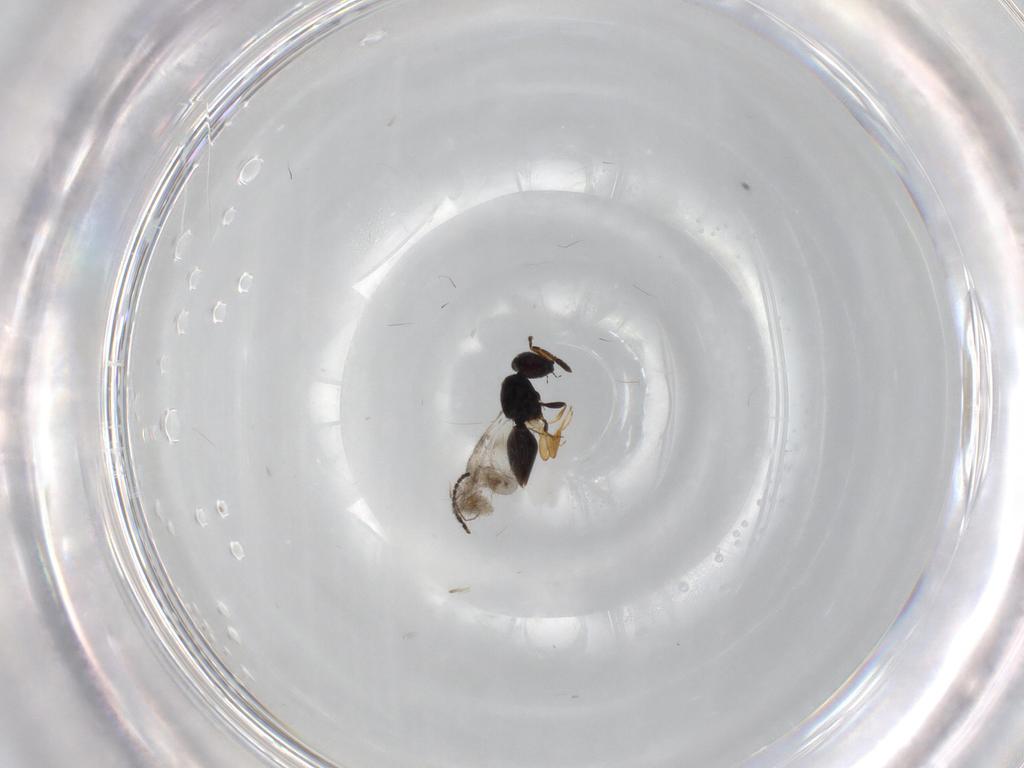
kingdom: Animalia
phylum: Arthropoda
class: Insecta
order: Hymenoptera
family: Scelionidae
